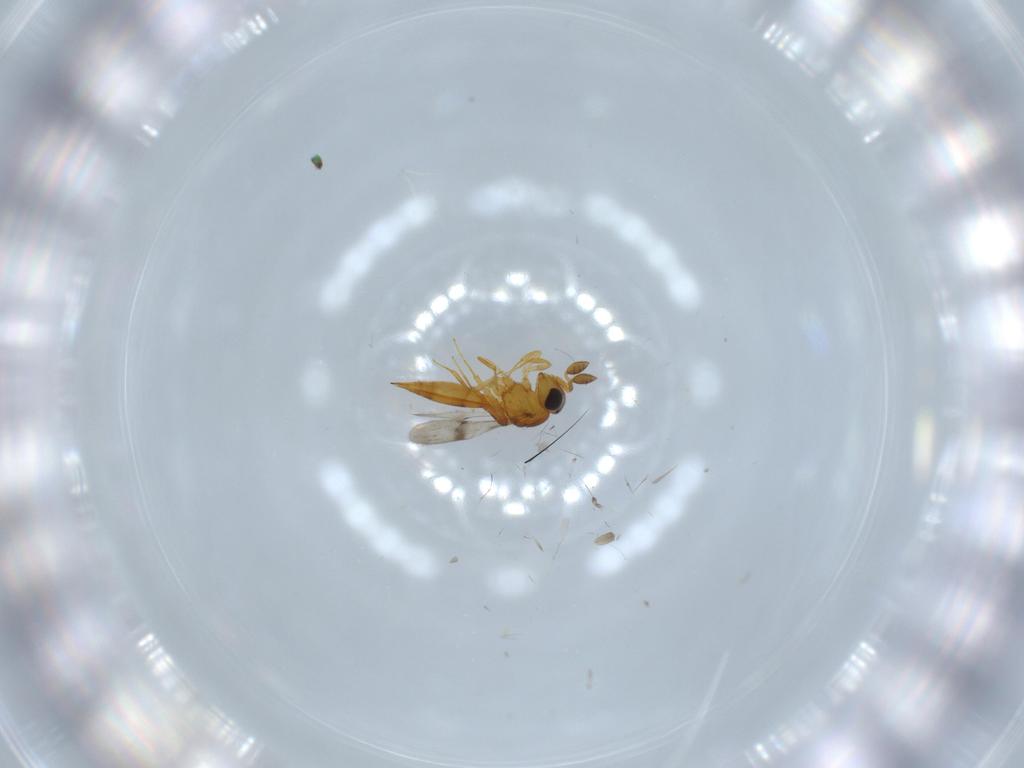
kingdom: Animalia
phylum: Arthropoda
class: Insecta
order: Hymenoptera
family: Scelionidae
